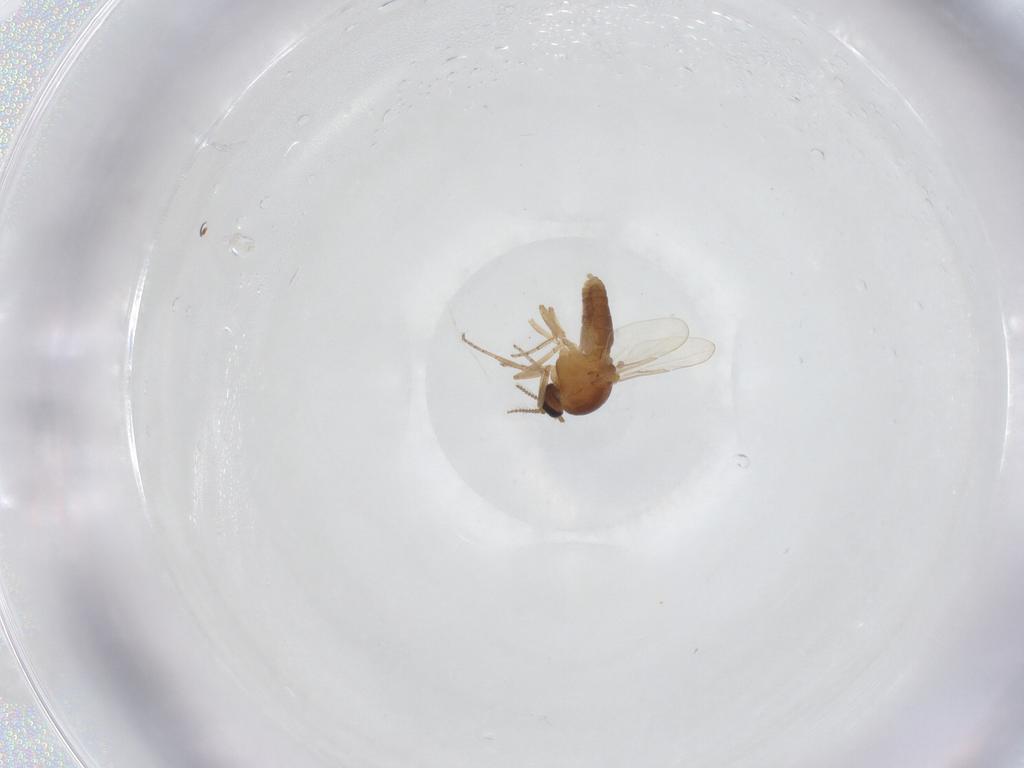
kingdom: Animalia
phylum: Arthropoda
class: Insecta
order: Diptera
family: Ceratopogonidae
